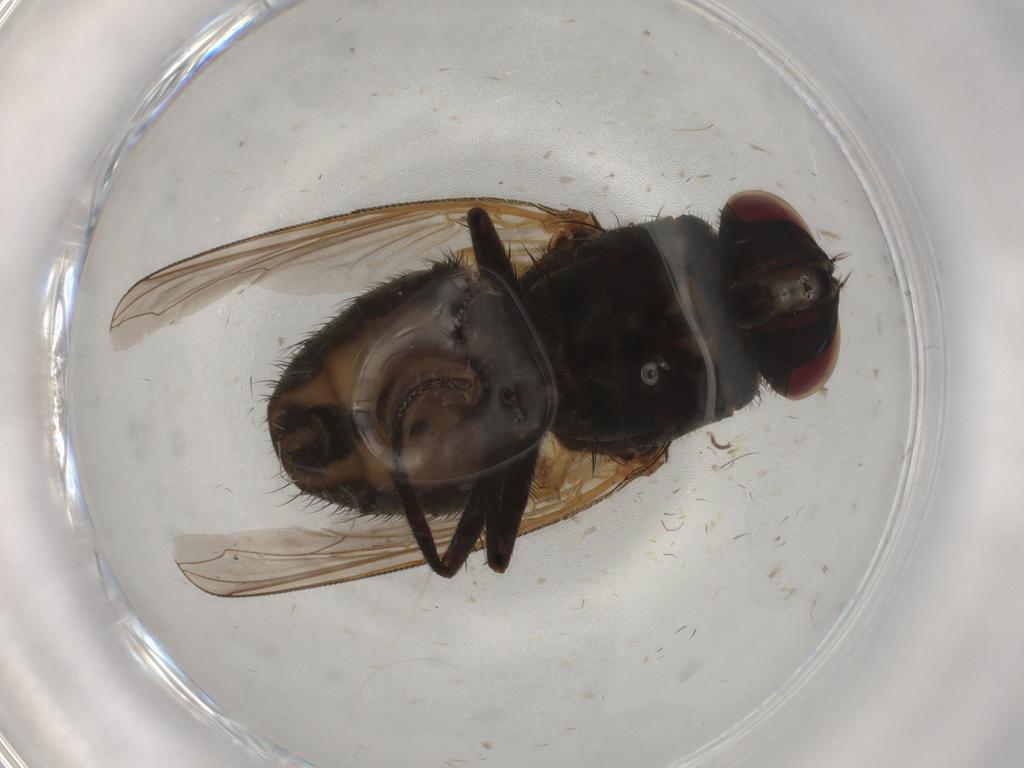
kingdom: Animalia
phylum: Arthropoda
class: Insecta
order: Diptera
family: Muscidae
